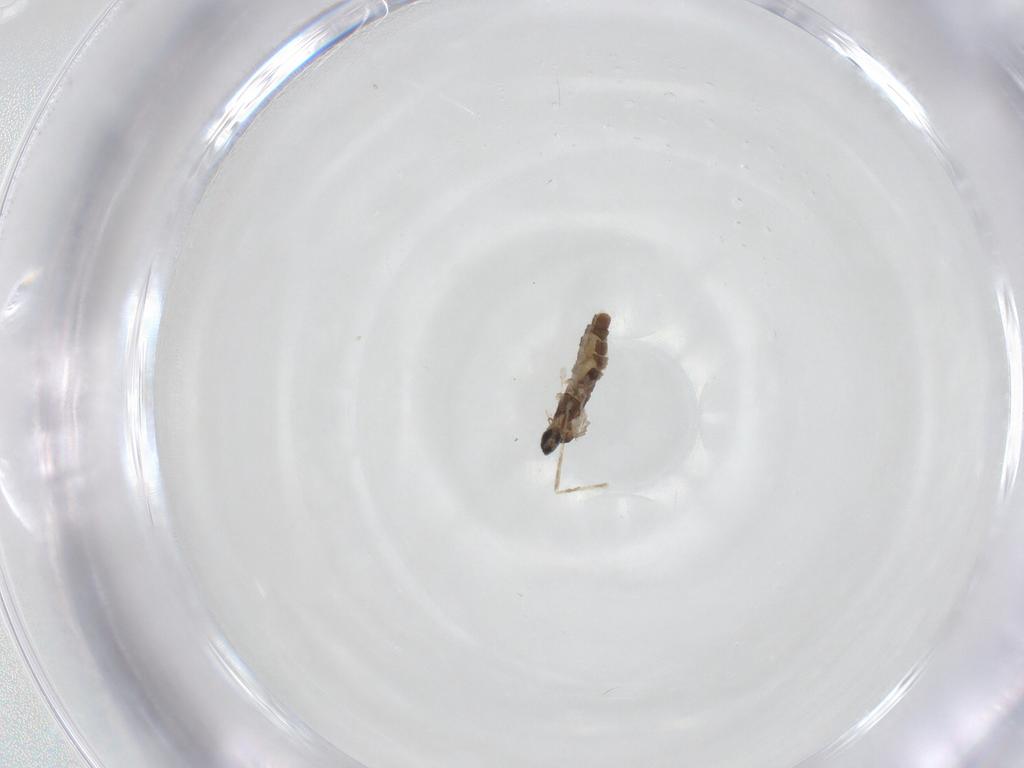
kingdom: Animalia
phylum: Arthropoda
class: Insecta
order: Diptera
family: Cecidomyiidae
